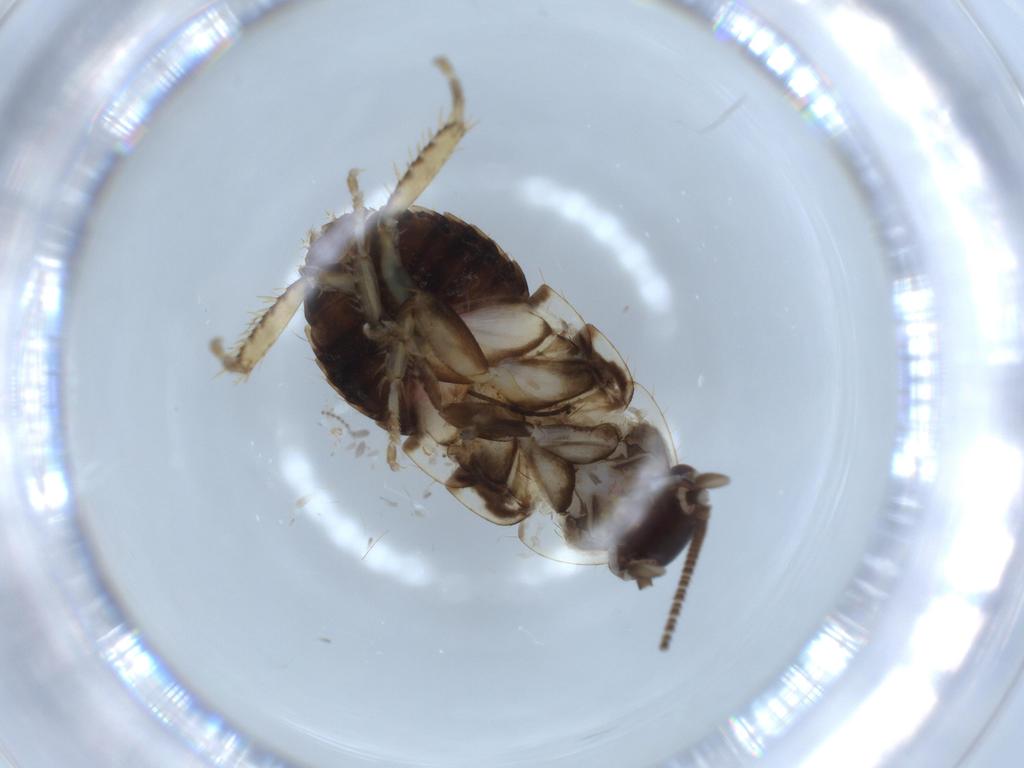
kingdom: Animalia
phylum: Arthropoda
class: Insecta
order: Blattodea
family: Ectobiidae
